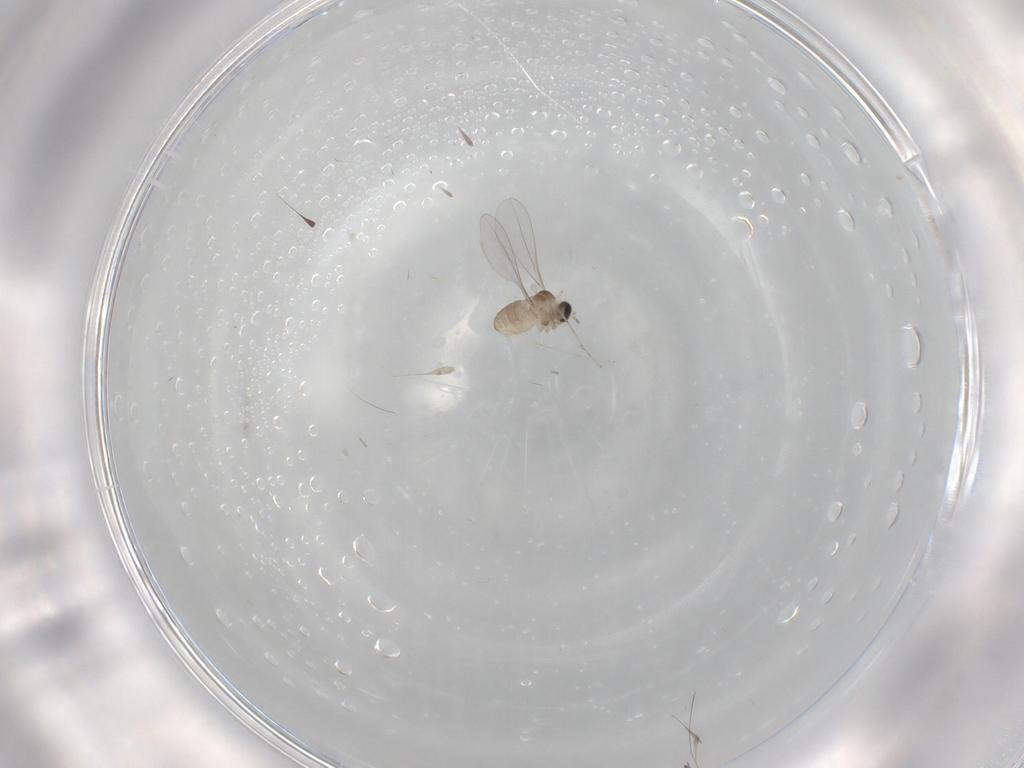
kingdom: Animalia
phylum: Arthropoda
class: Insecta
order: Diptera
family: Cecidomyiidae
